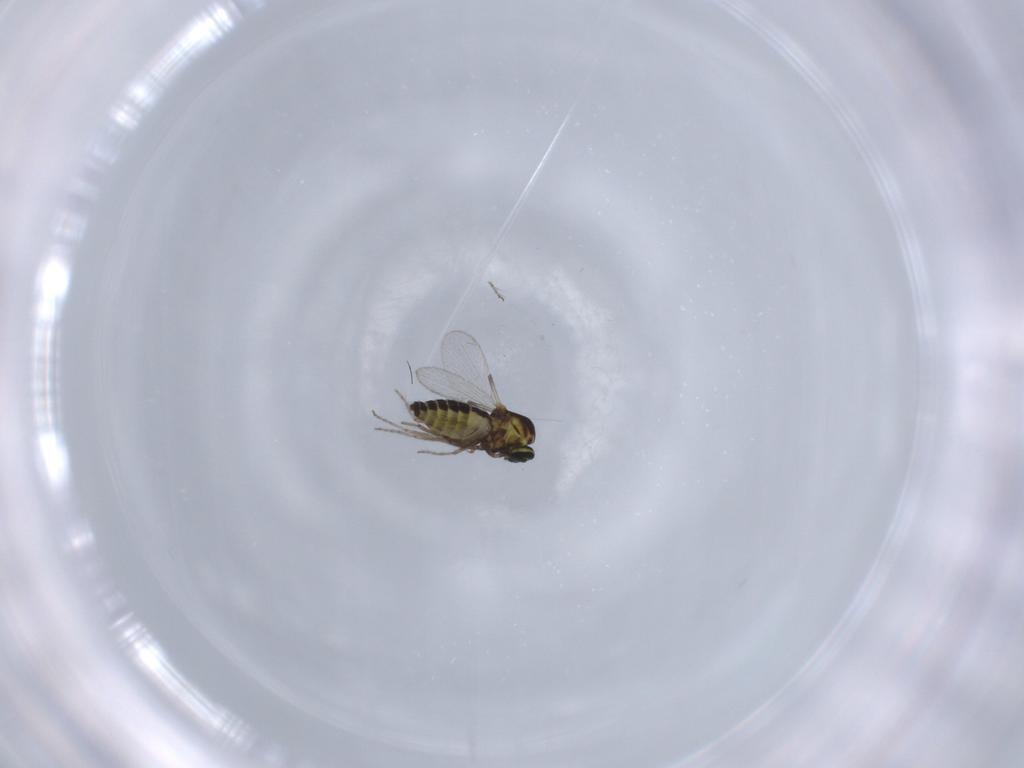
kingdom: Animalia
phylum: Arthropoda
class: Insecta
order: Diptera
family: Ceratopogonidae
